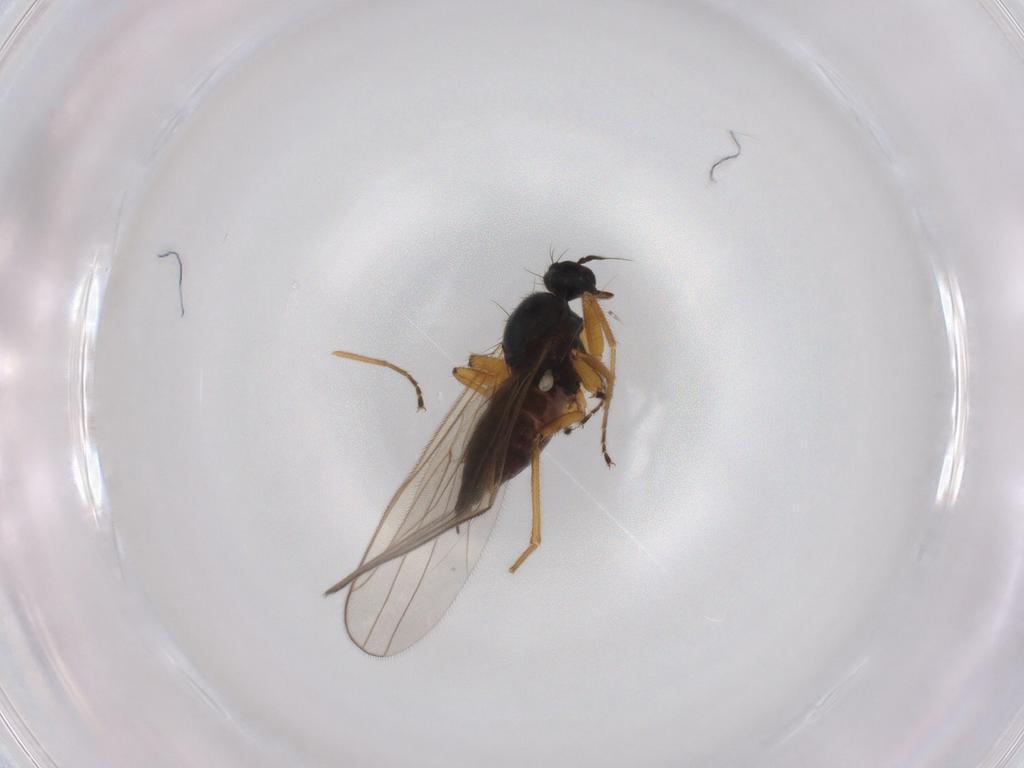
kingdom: Animalia
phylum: Arthropoda
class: Insecta
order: Diptera
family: Hybotidae
